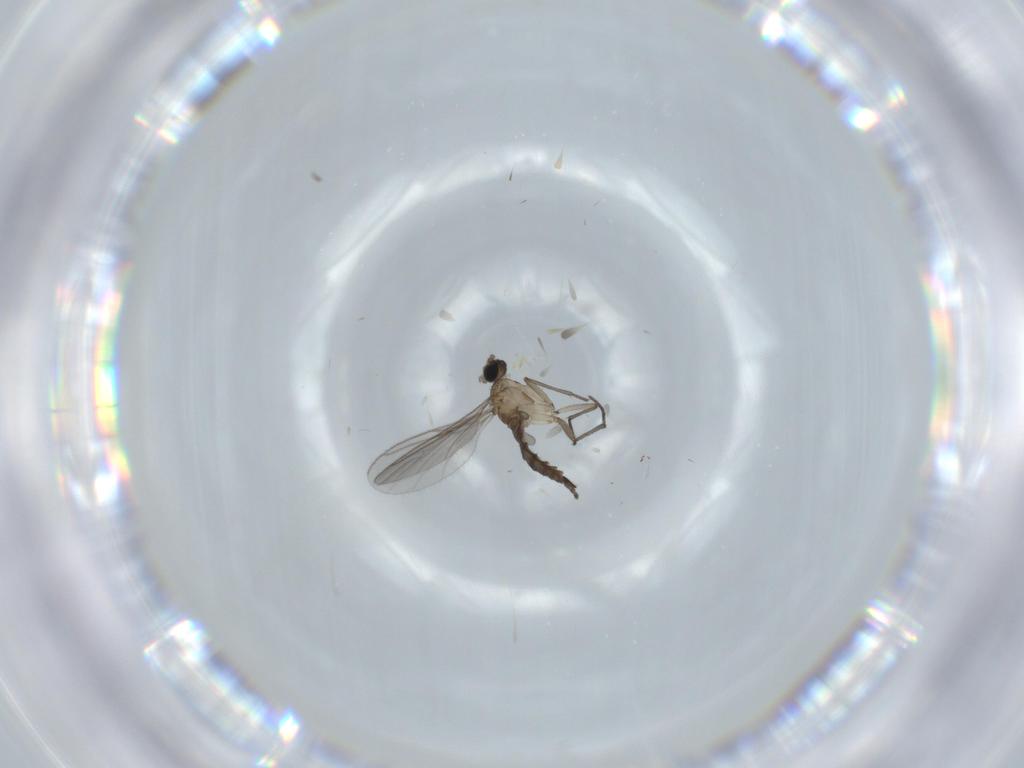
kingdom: Animalia
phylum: Arthropoda
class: Insecta
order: Diptera
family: Sciaridae
